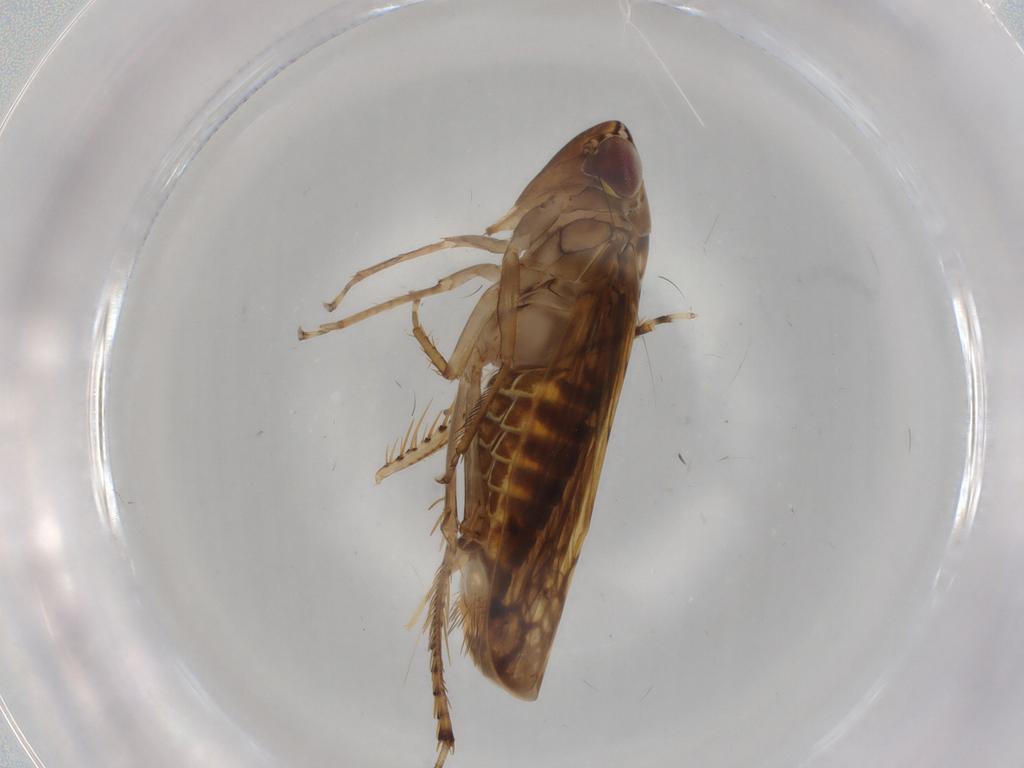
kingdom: Animalia
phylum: Arthropoda
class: Insecta
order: Hemiptera
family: Cicadellidae
